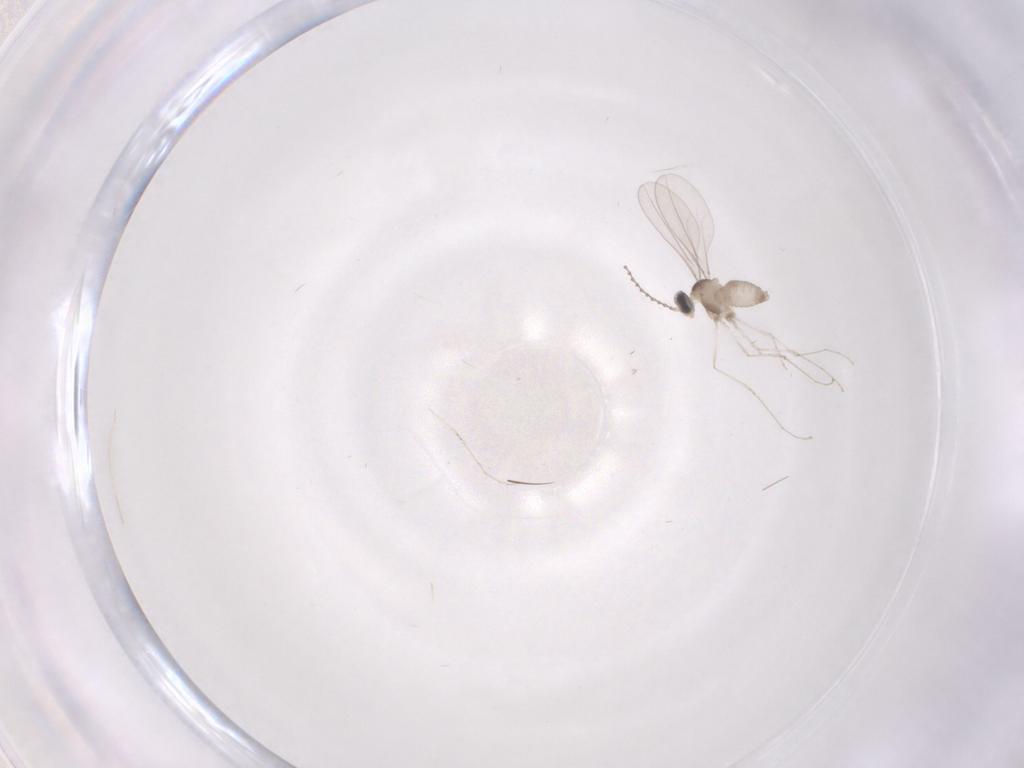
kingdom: Animalia
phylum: Arthropoda
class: Insecta
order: Diptera
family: Cecidomyiidae
